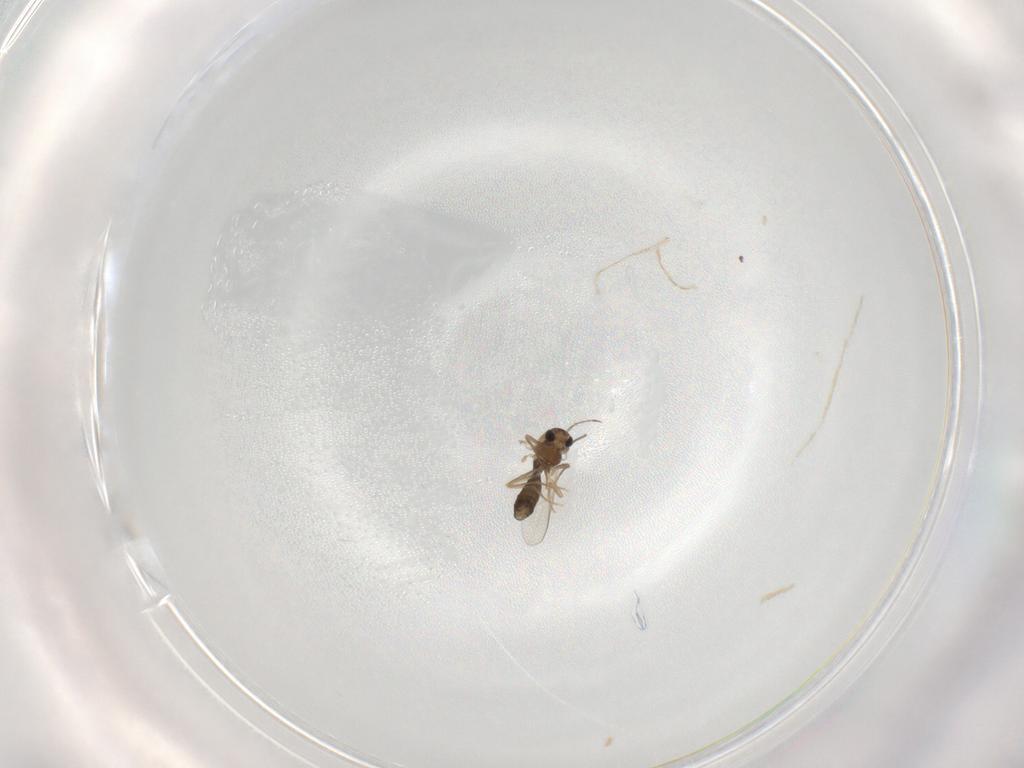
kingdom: Animalia
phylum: Arthropoda
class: Insecta
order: Diptera
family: Chironomidae
